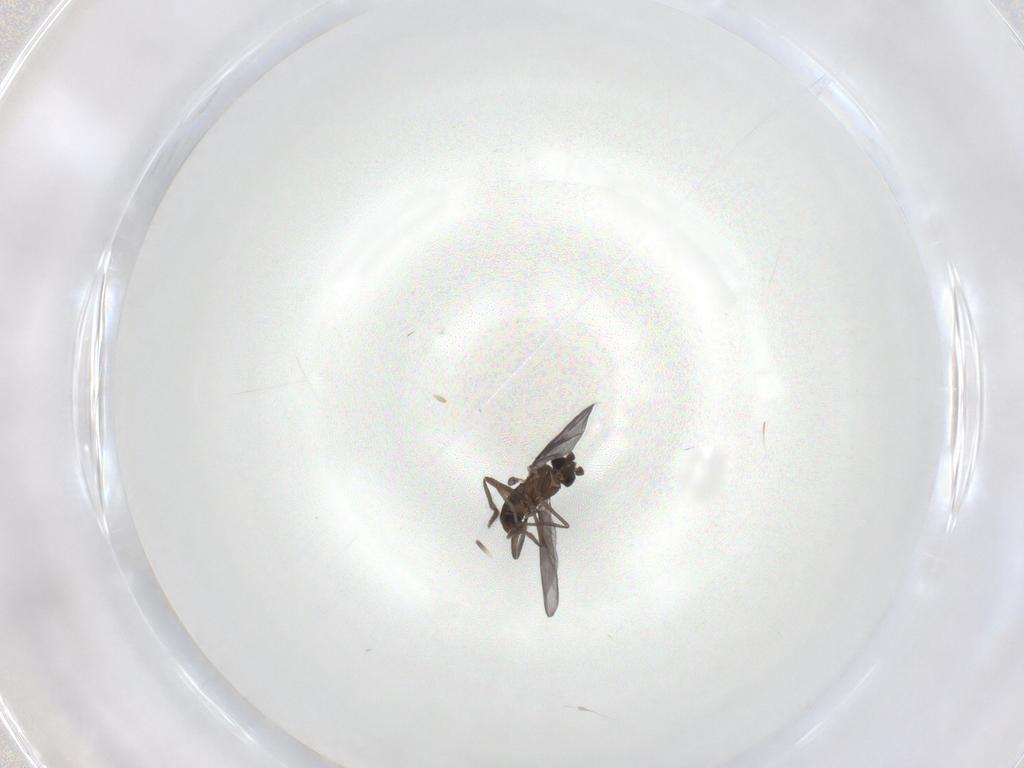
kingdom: Animalia
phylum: Arthropoda
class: Insecta
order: Diptera
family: Phoridae
